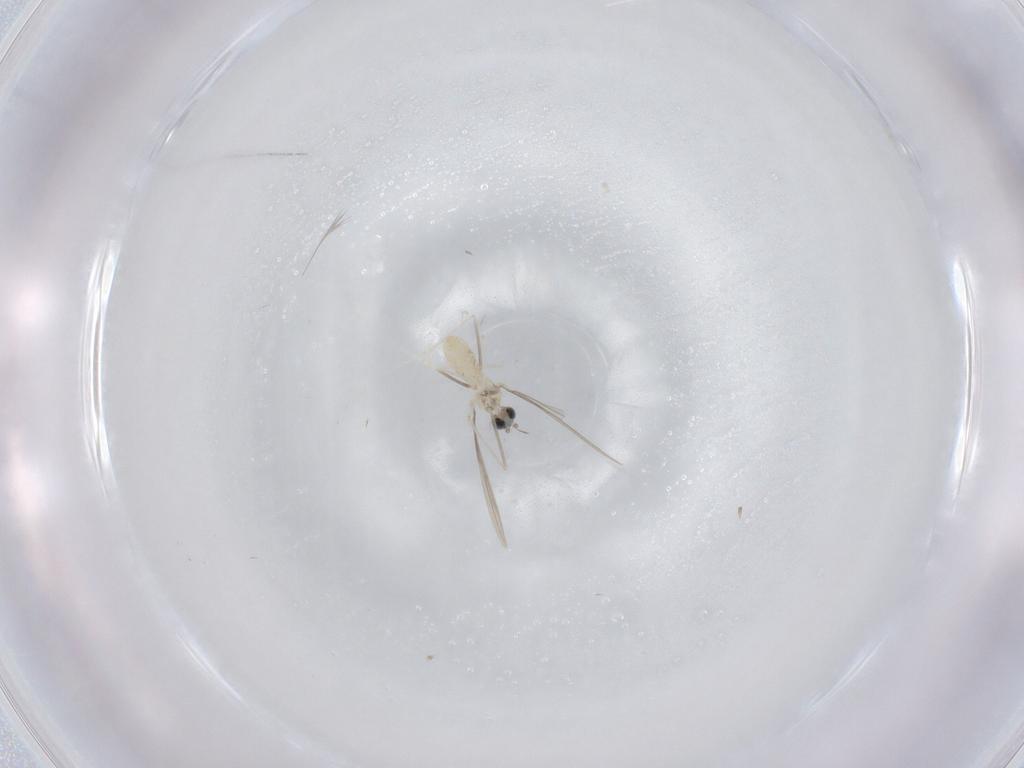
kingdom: Animalia
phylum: Arthropoda
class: Insecta
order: Diptera
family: Cecidomyiidae
